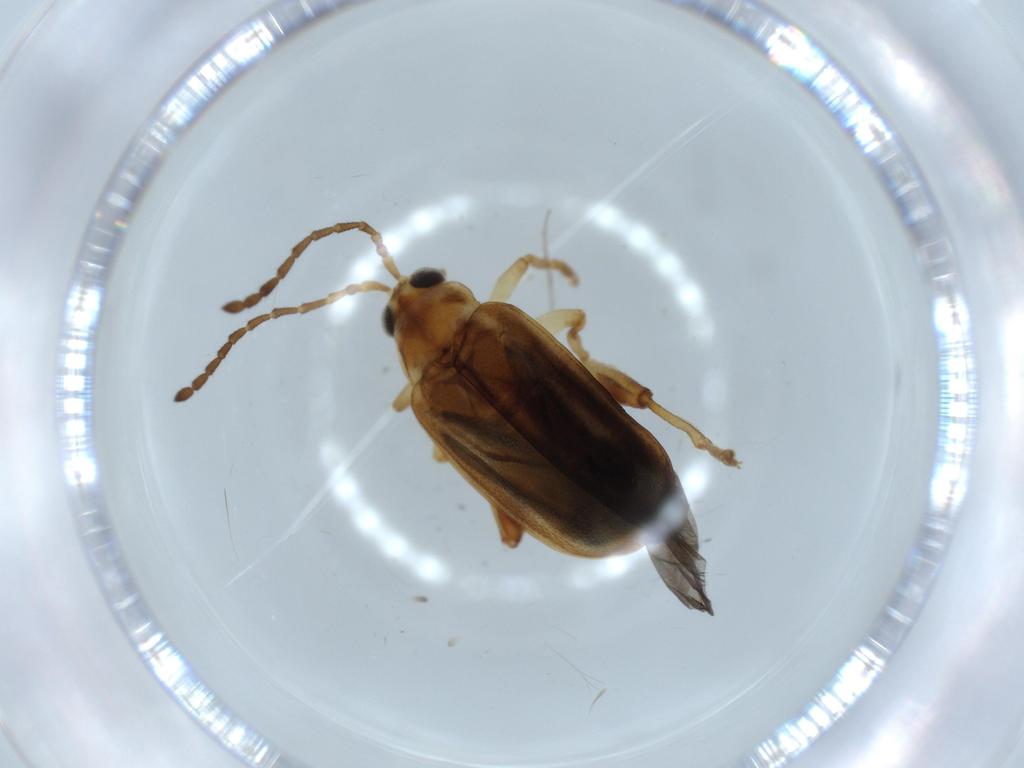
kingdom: Animalia
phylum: Arthropoda
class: Insecta
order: Coleoptera
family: Chrysomelidae
